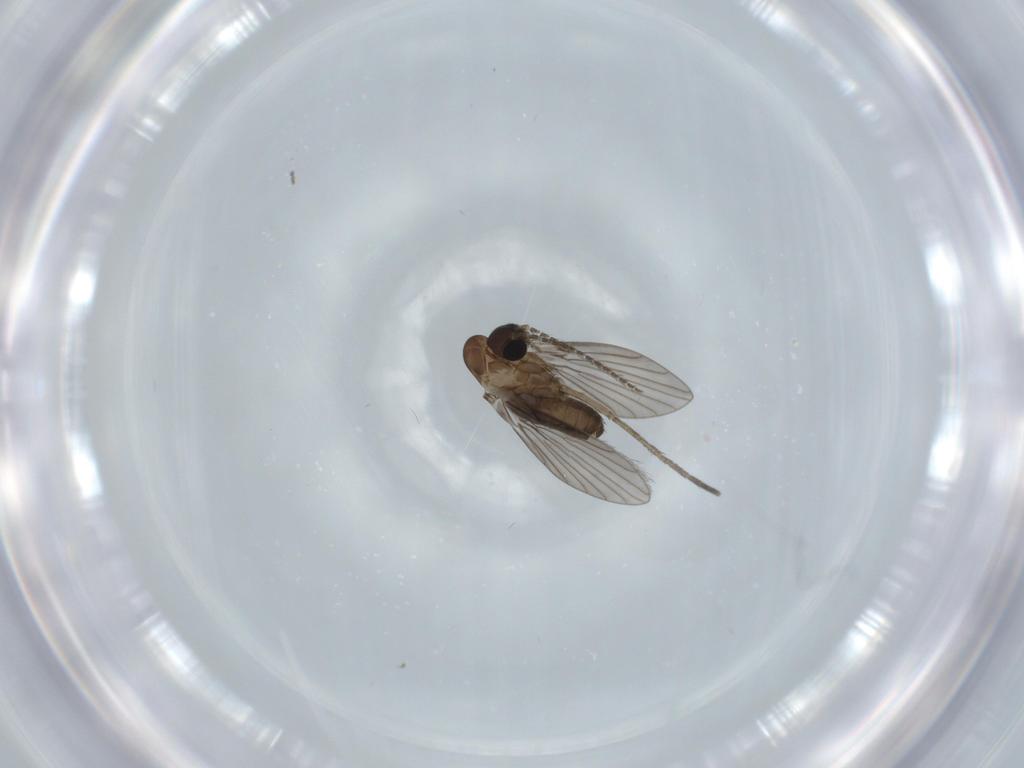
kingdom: Animalia
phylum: Arthropoda
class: Insecta
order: Diptera
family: Psychodidae
